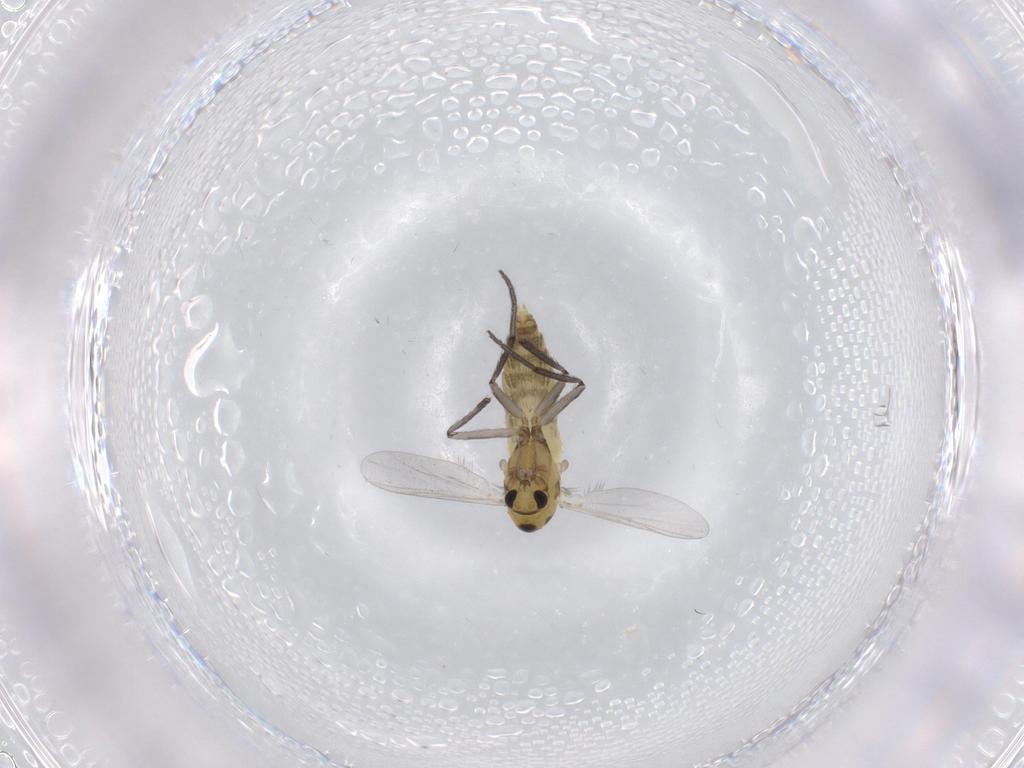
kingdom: Animalia
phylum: Arthropoda
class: Insecta
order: Diptera
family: Chironomidae
